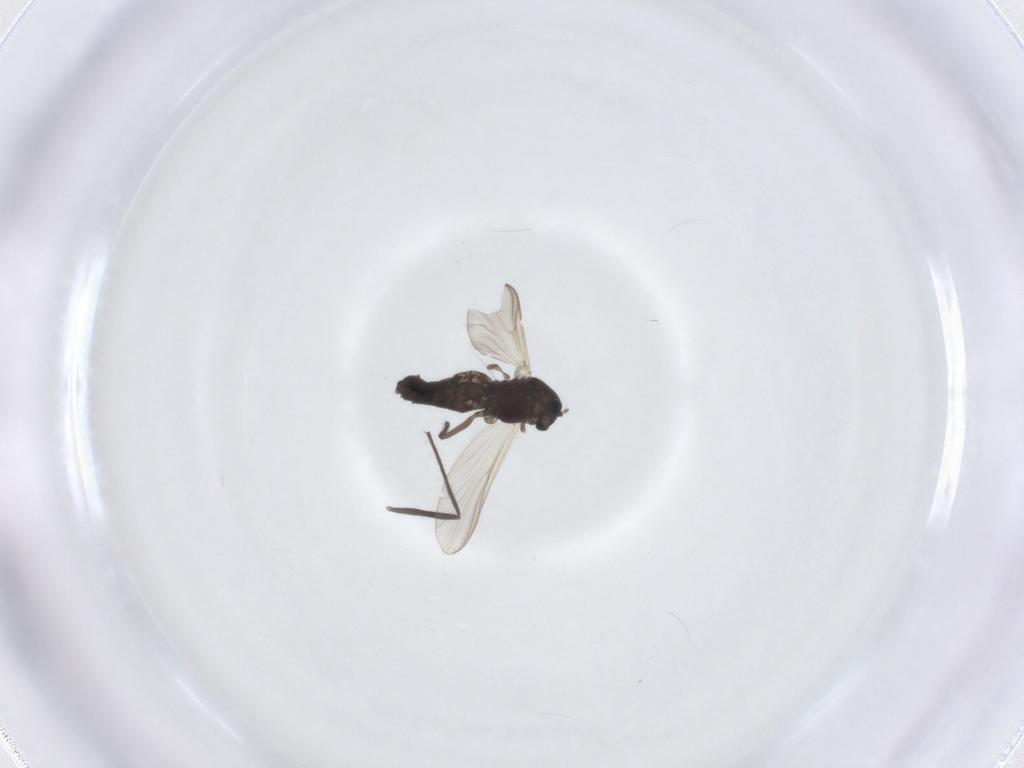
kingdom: Animalia
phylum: Arthropoda
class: Insecta
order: Diptera
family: Chironomidae
